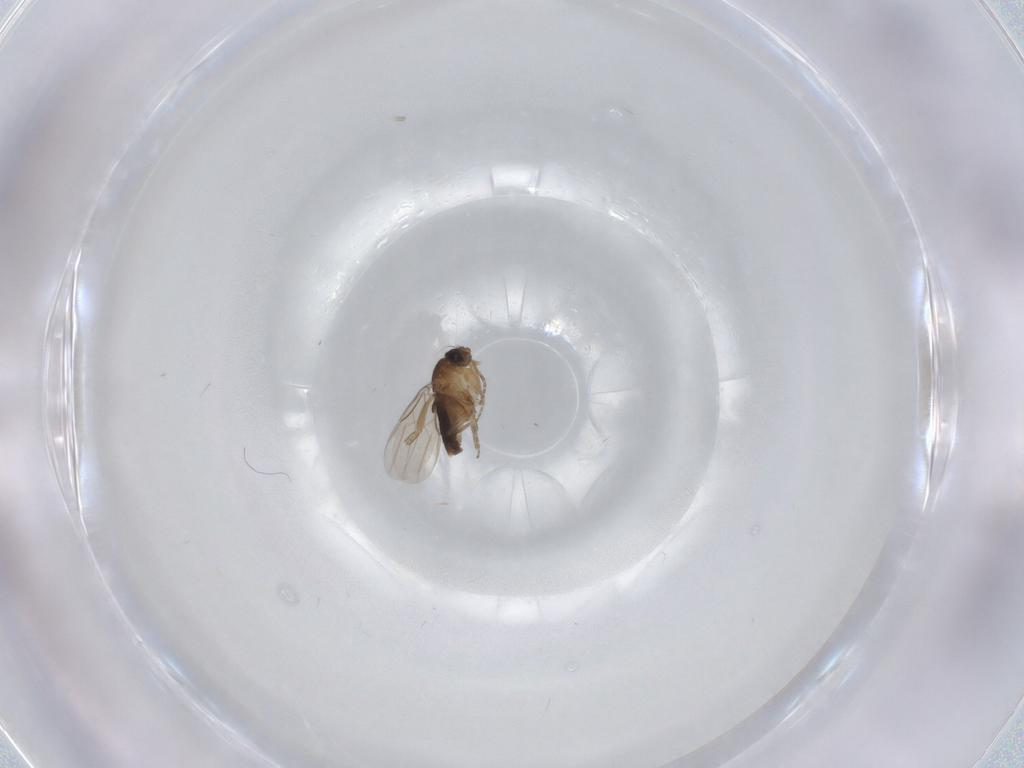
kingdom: Animalia
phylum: Arthropoda
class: Insecta
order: Diptera
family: Phoridae
